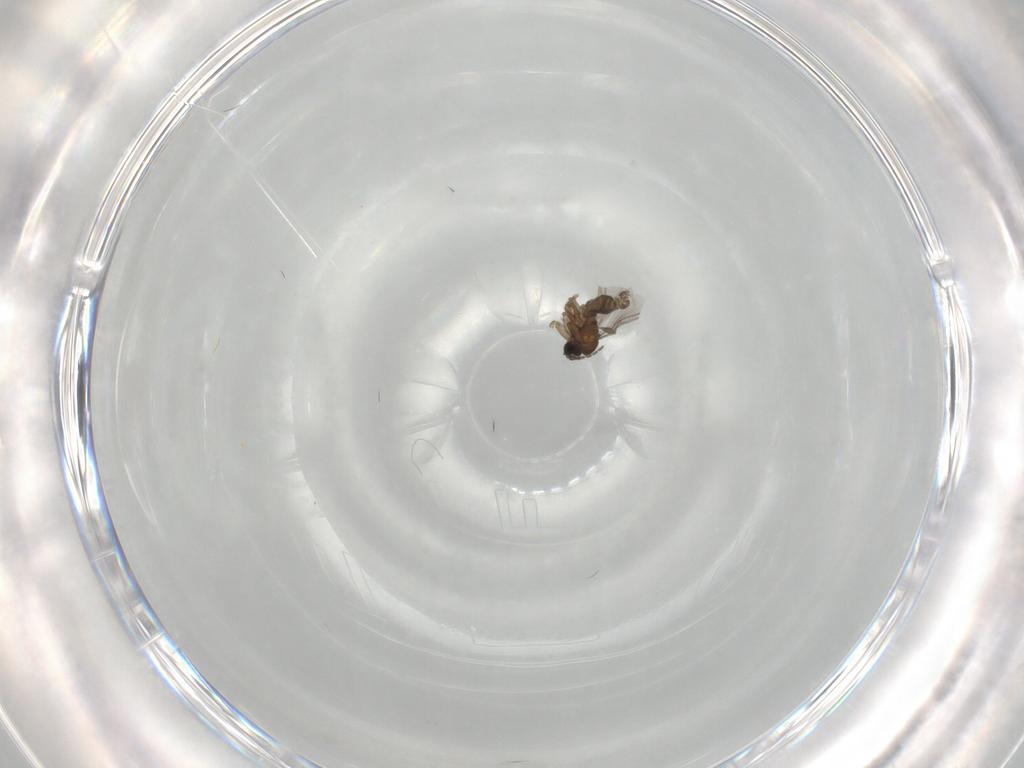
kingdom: Animalia
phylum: Arthropoda
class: Insecta
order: Diptera
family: Sciaridae
